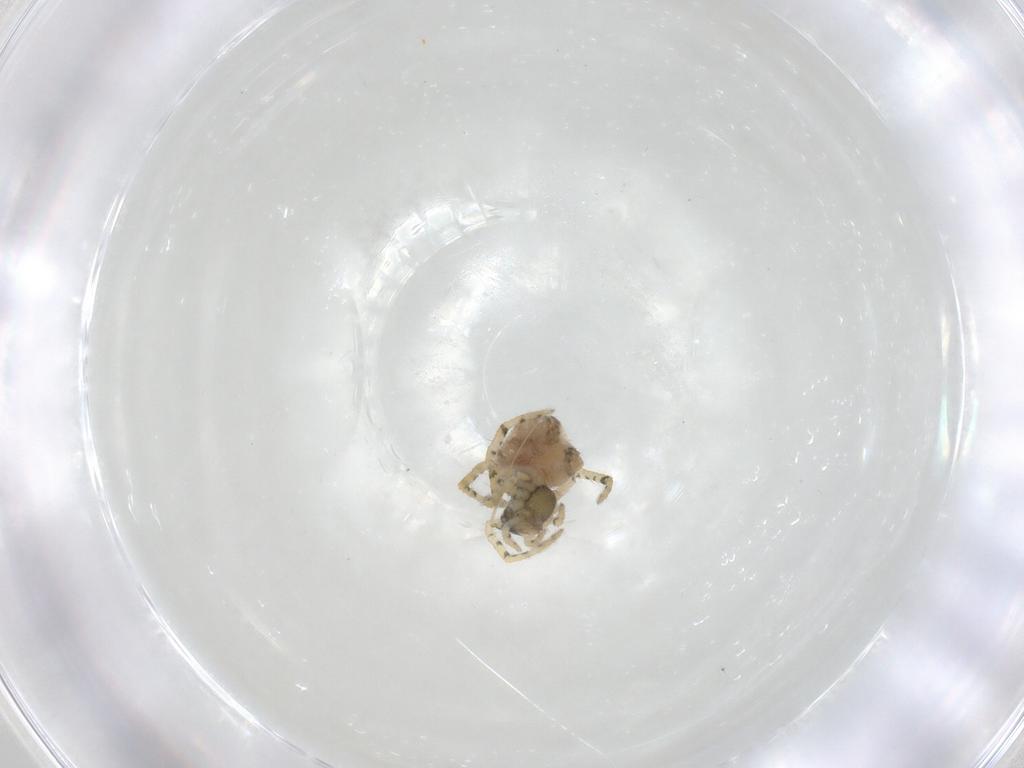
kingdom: Animalia
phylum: Arthropoda
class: Arachnida
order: Araneae
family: Theridiidae
